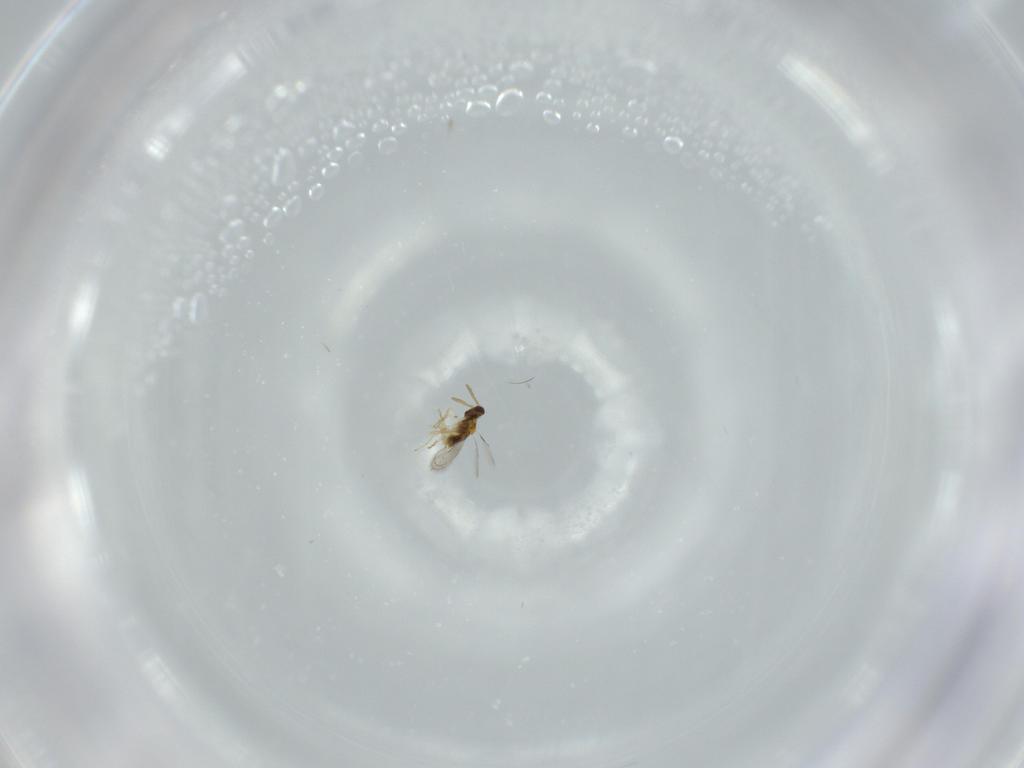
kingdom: Animalia
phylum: Arthropoda
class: Insecta
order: Hymenoptera
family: Aphelinidae
